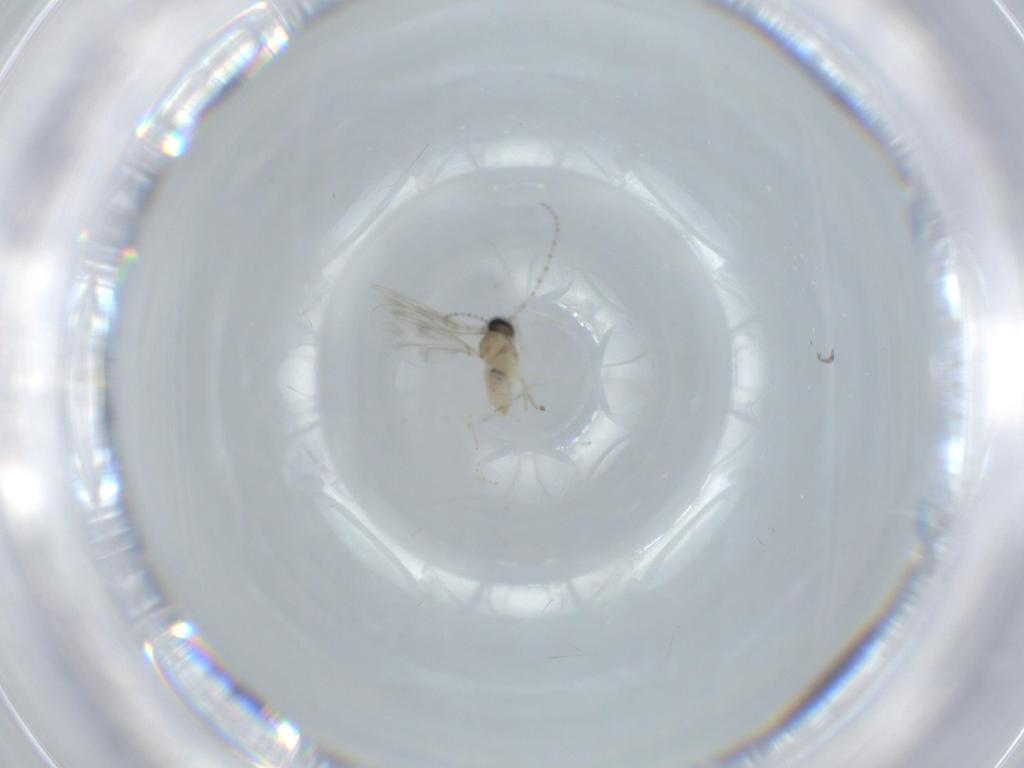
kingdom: Animalia
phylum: Arthropoda
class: Insecta
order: Diptera
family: Cecidomyiidae
